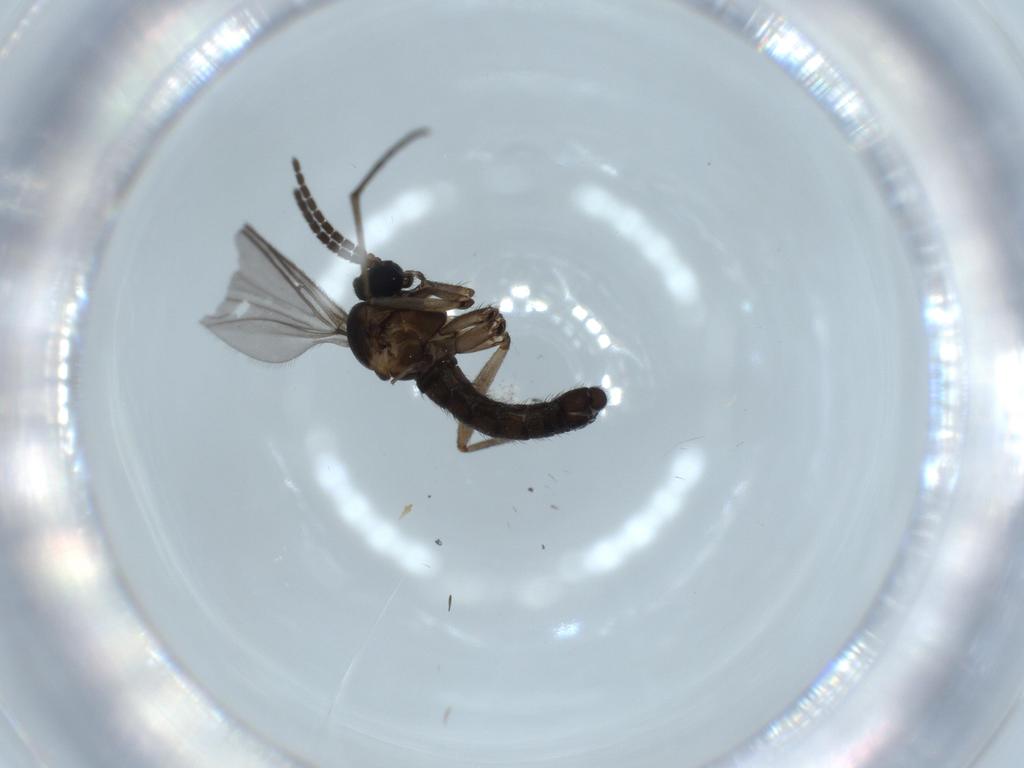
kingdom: Animalia
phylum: Arthropoda
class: Insecta
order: Diptera
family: Sciaridae
